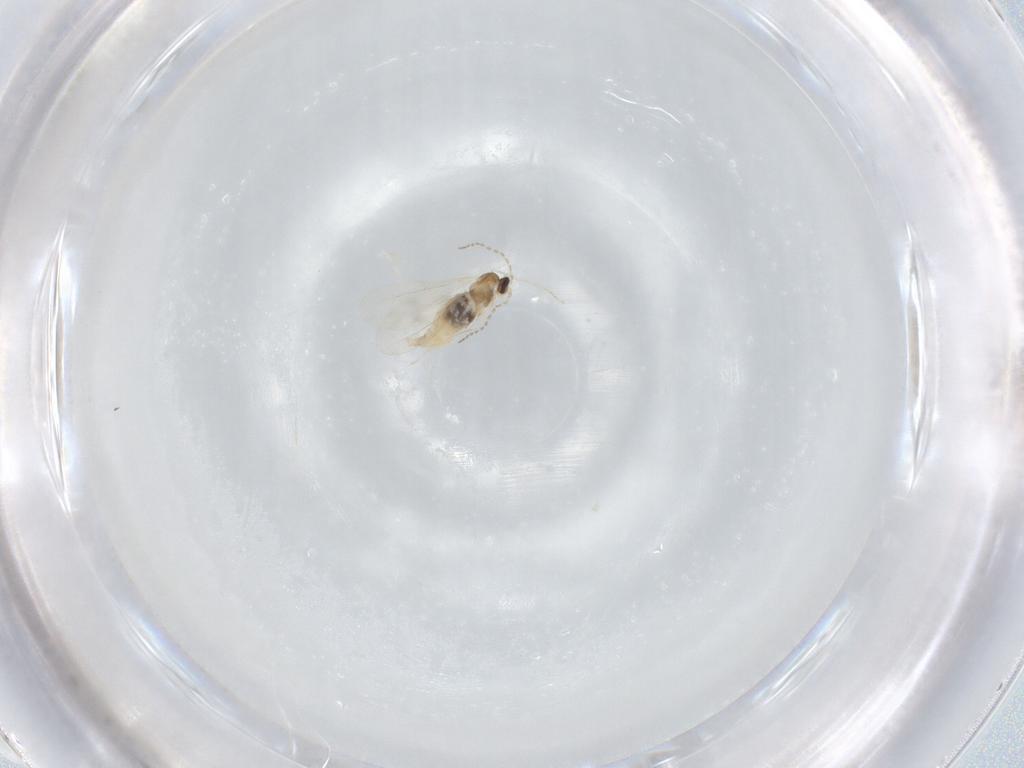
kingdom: Animalia
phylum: Arthropoda
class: Insecta
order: Diptera
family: Cecidomyiidae
